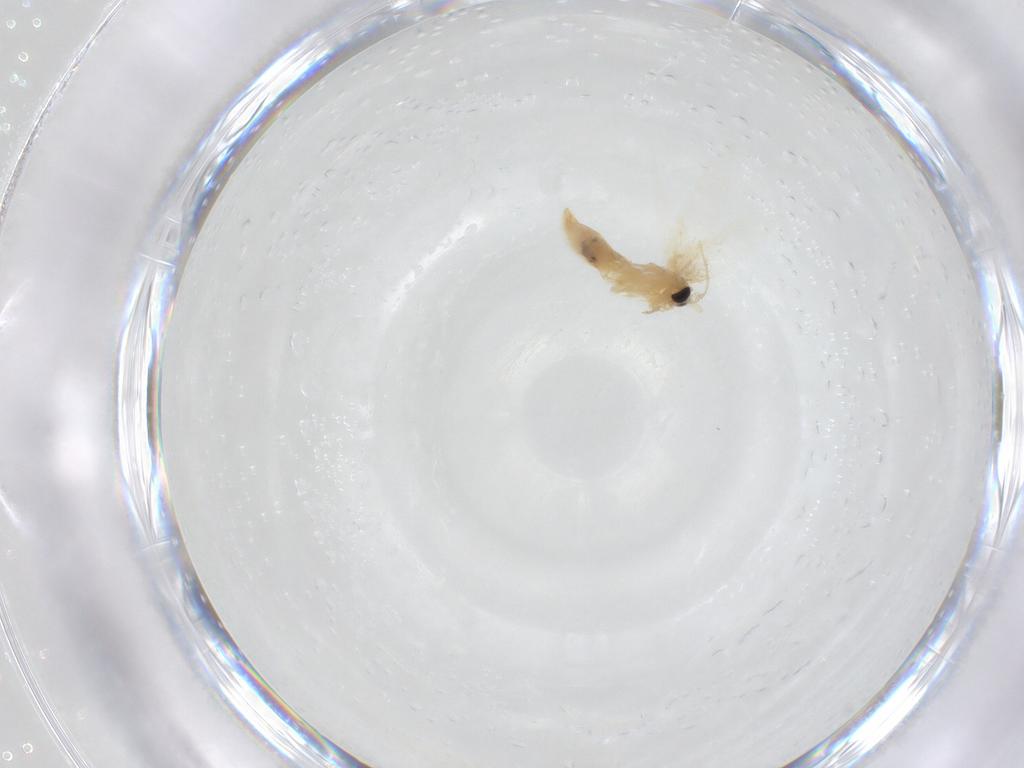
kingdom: Animalia
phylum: Arthropoda
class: Insecta
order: Lepidoptera
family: Nepticulidae
